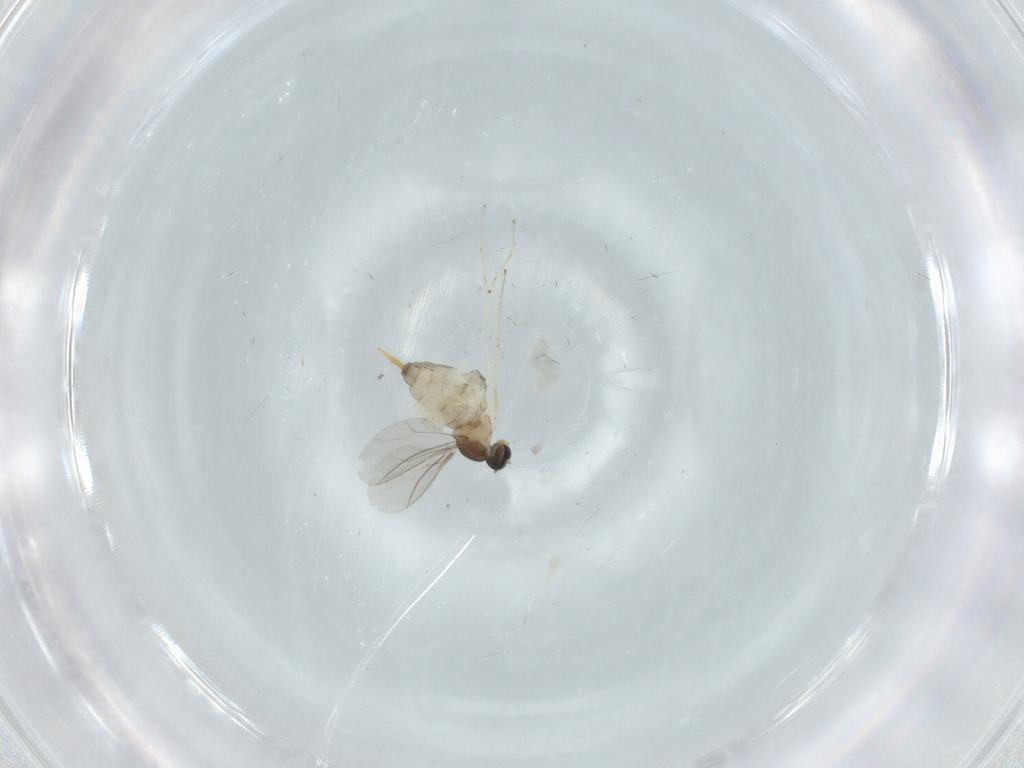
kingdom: Animalia
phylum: Arthropoda
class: Insecta
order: Diptera
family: Cecidomyiidae
